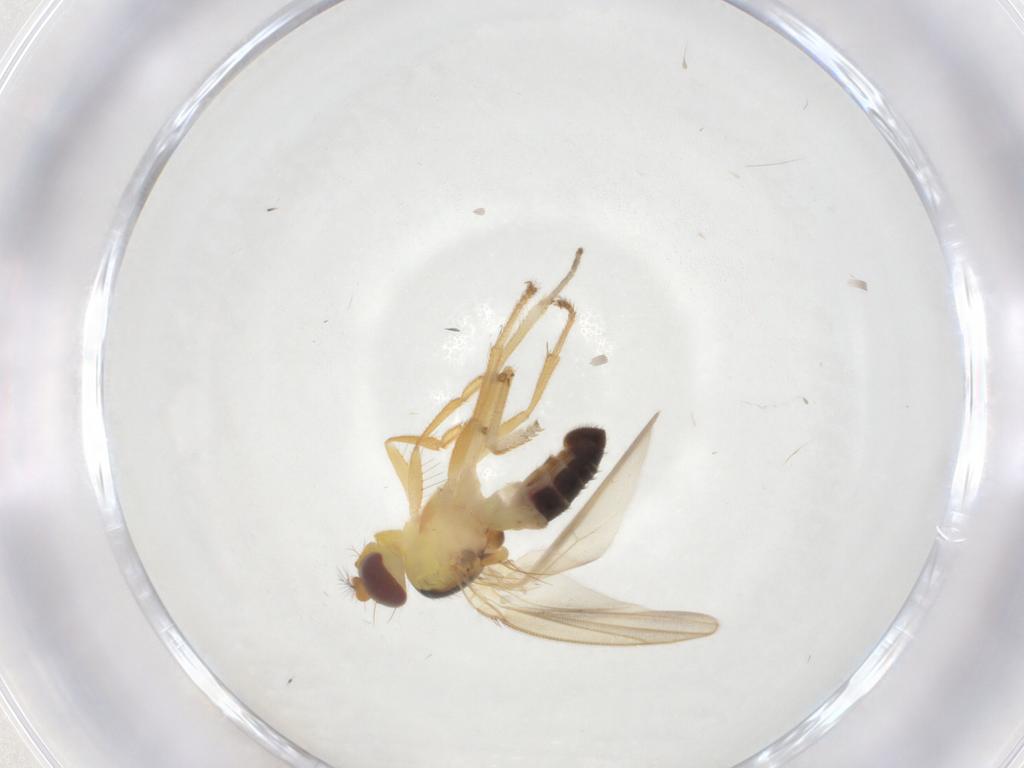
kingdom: Animalia
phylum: Arthropoda
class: Insecta
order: Diptera
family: Periscelididae
